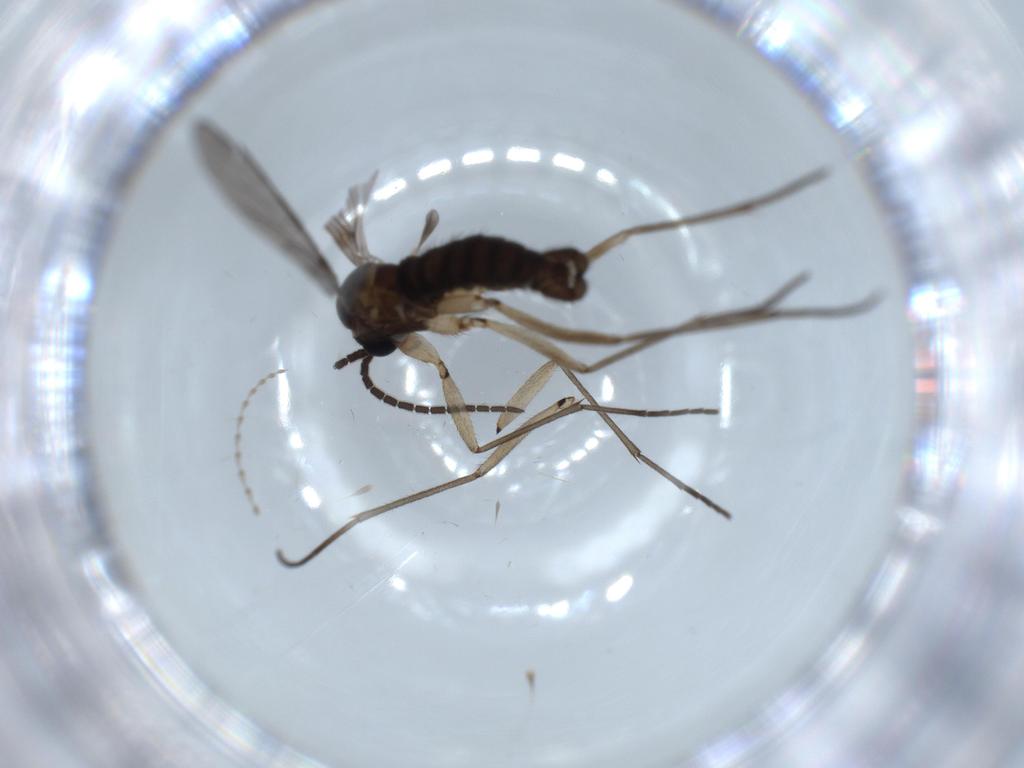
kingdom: Animalia
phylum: Arthropoda
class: Insecta
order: Diptera
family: Sciaridae
